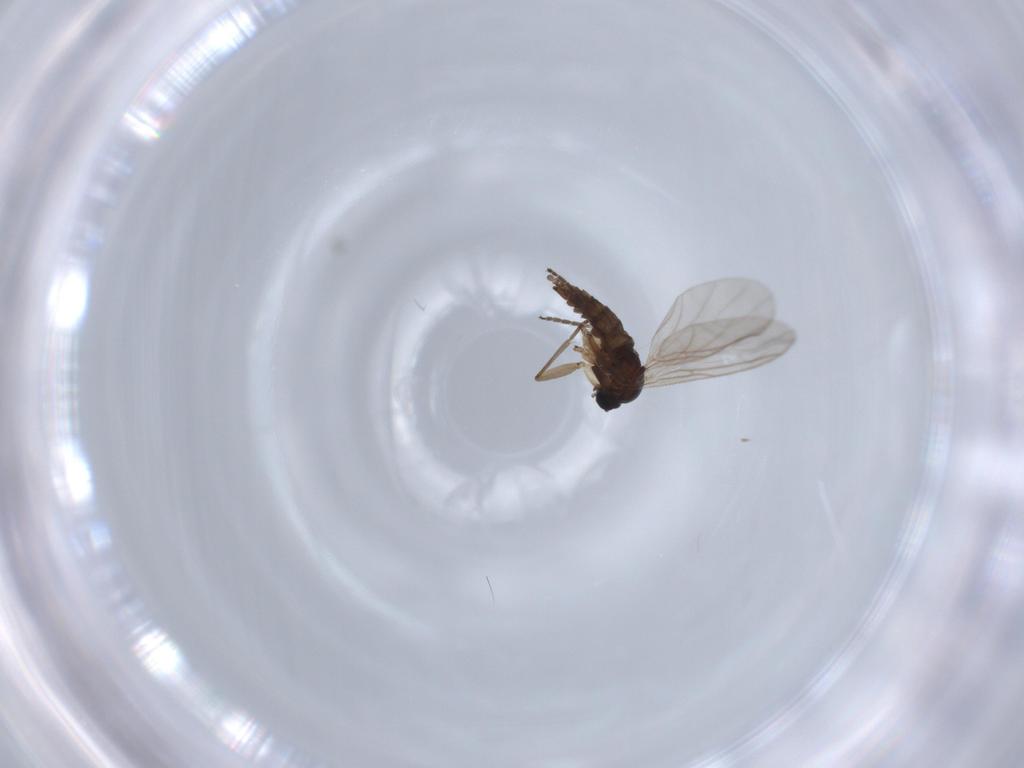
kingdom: Animalia
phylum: Arthropoda
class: Insecta
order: Diptera
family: Sciaridae
